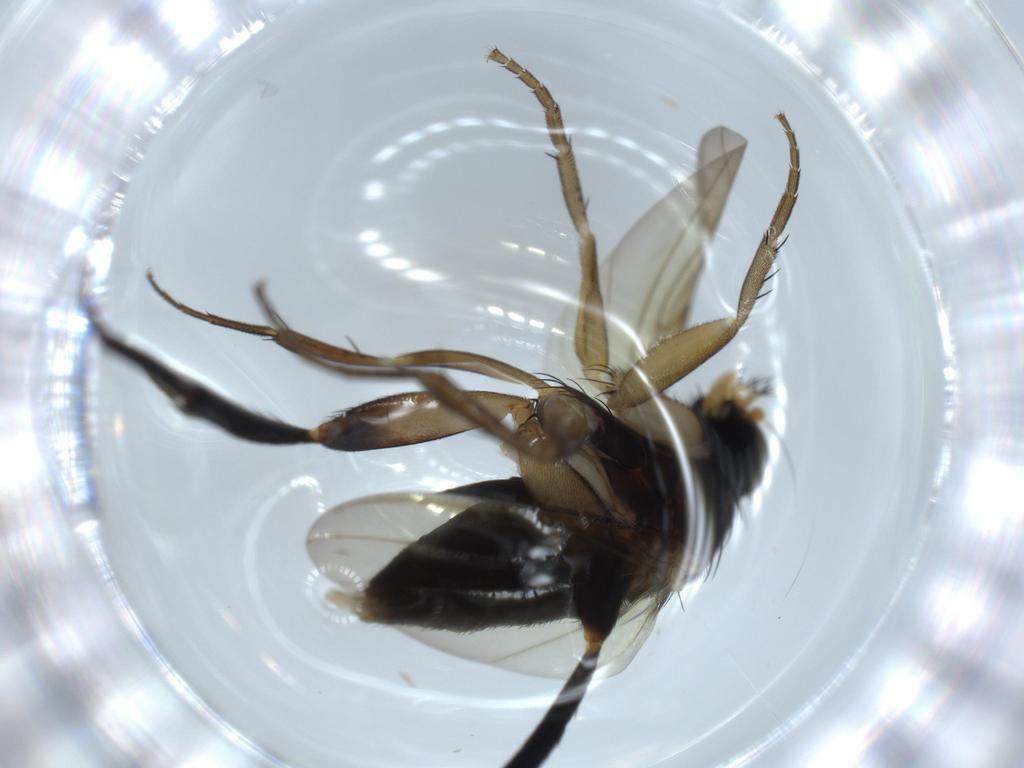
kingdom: Animalia
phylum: Arthropoda
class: Insecta
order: Diptera
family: Phoridae
